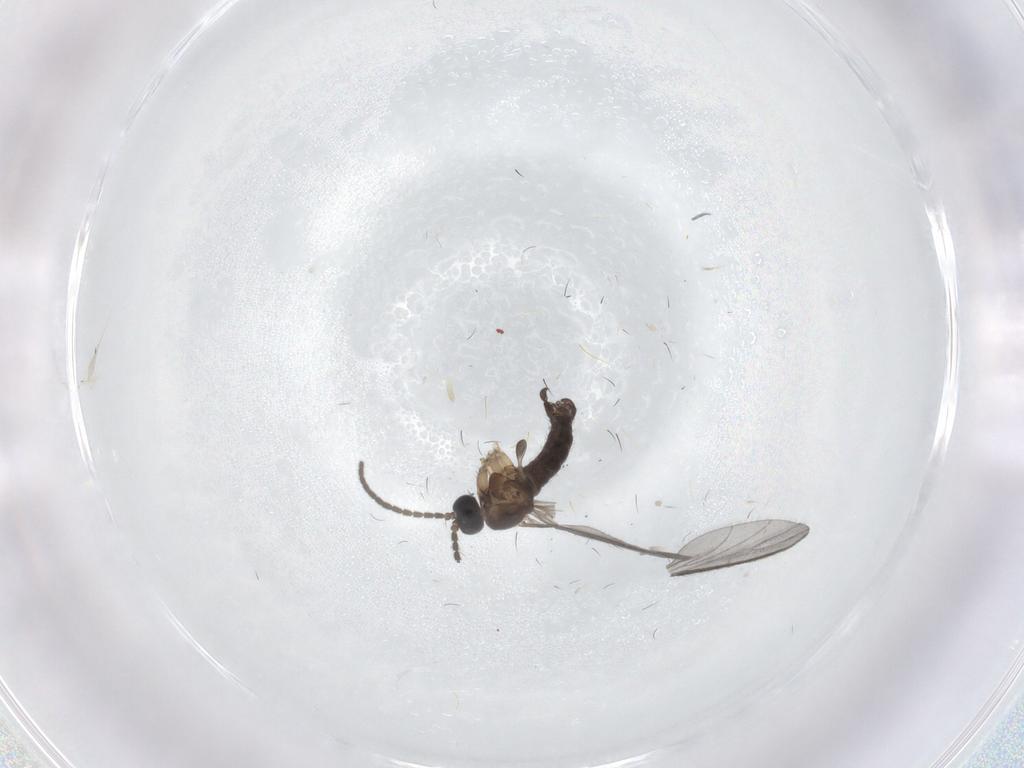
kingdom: Animalia
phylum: Arthropoda
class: Insecta
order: Diptera
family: Sciaridae
